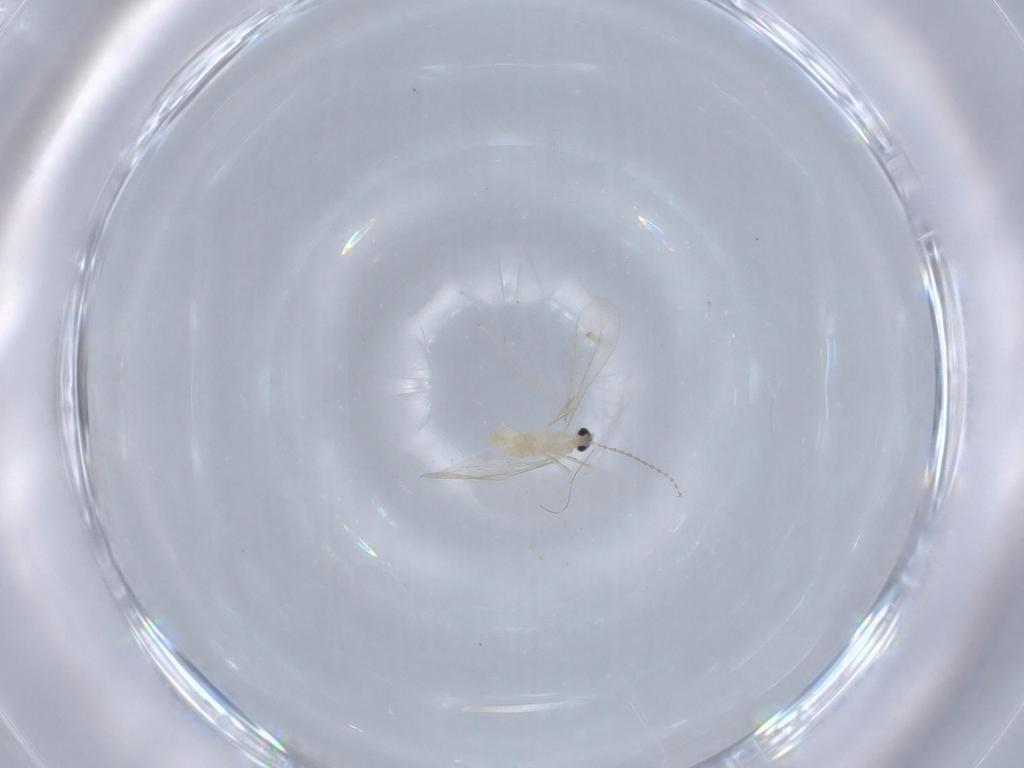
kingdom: Animalia
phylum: Arthropoda
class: Insecta
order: Diptera
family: Cecidomyiidae
